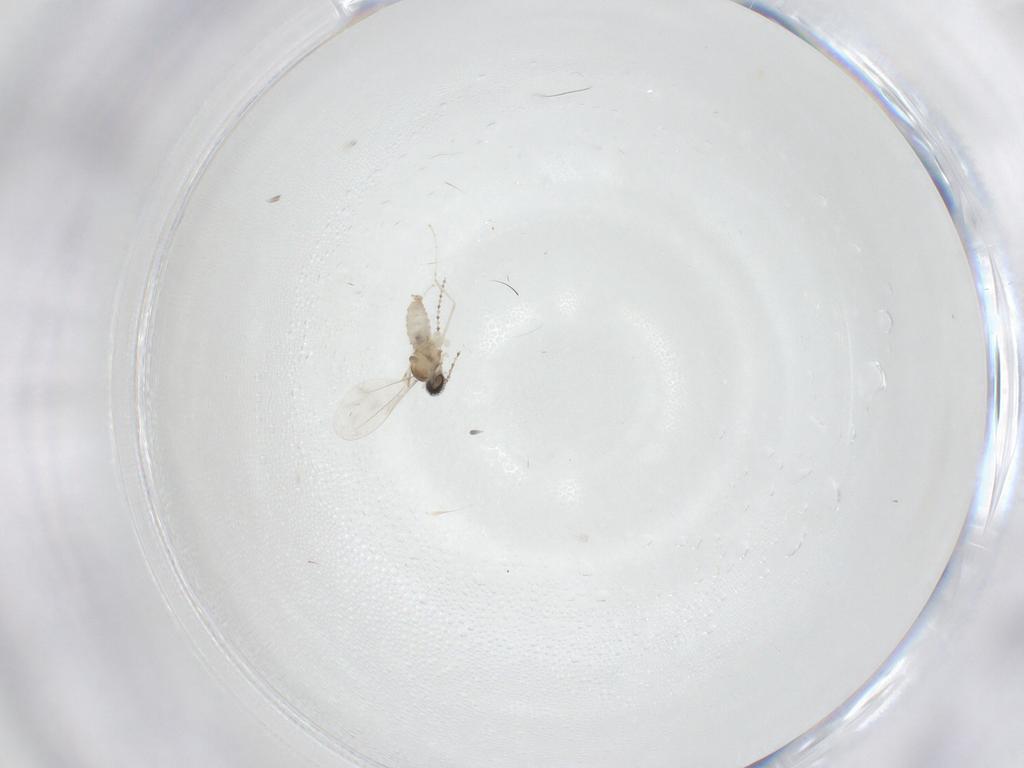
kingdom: Animalia
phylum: Arthropoda
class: Insecta
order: Diptera
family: Cecidomyiidae
